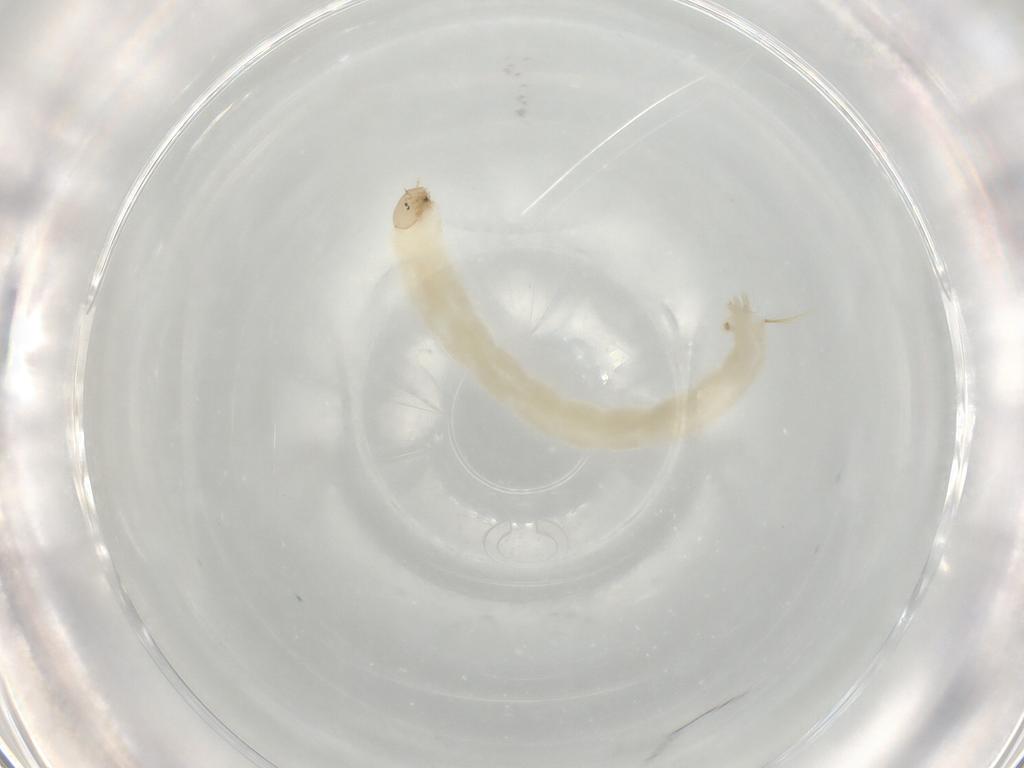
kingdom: Animalia
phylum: Arthropoda
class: Insecta
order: Diptera
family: Chironomidae
